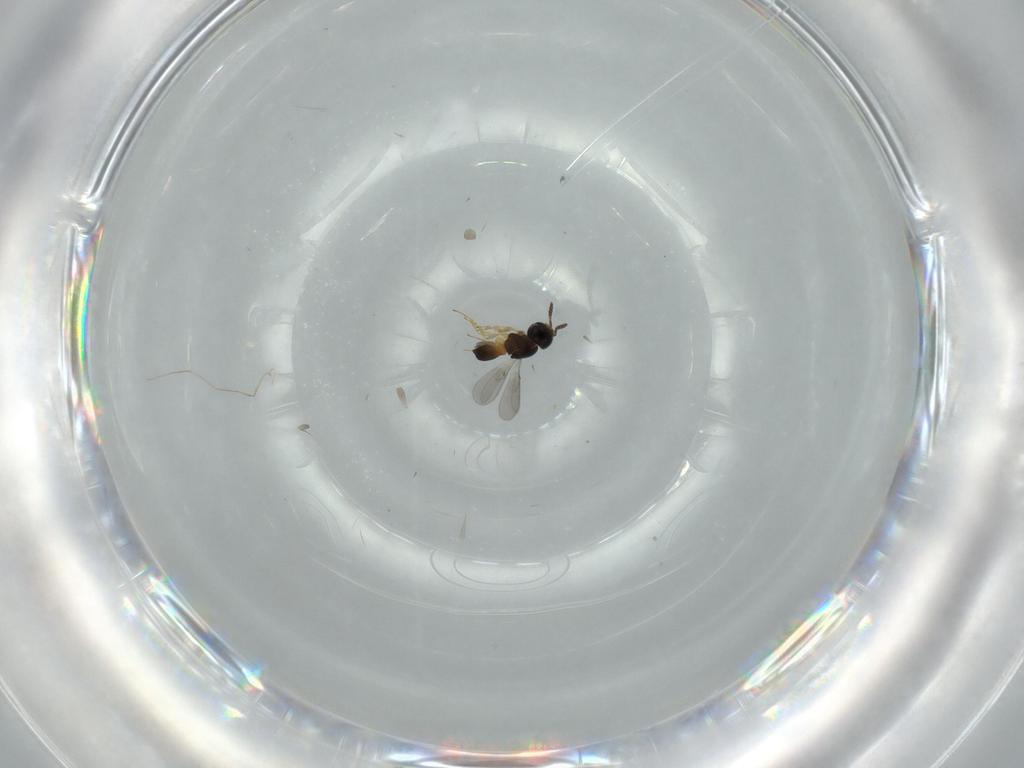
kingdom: Animalia
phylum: Arthropoda
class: Insecta
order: Hymenoptera
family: Scelionidae
